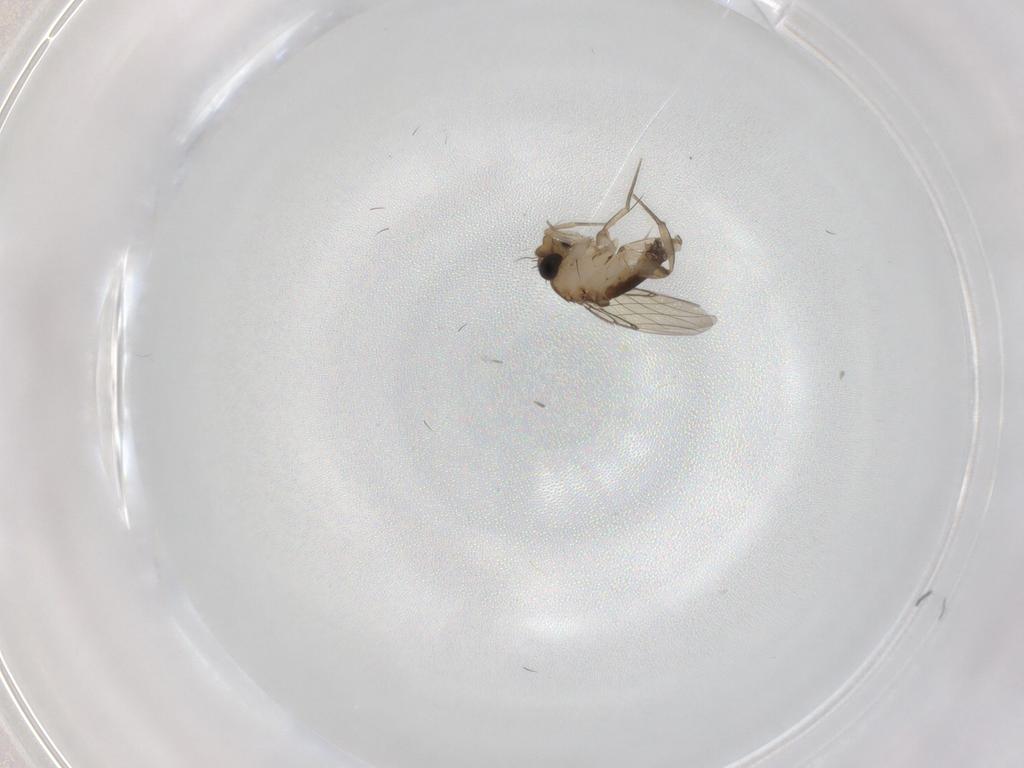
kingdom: Animalia
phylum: Arthropoda
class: Insecta
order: Diptera
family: Phoridae
